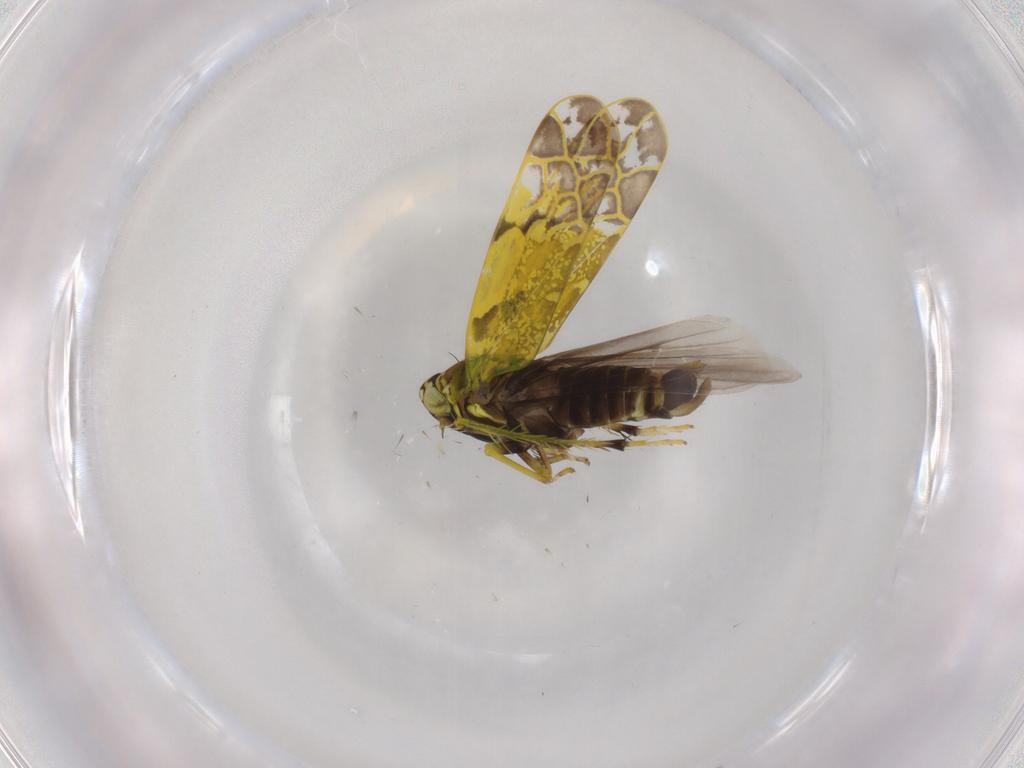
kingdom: Animalia
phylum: Arthropoda
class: Insecta
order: Hemiptera
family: Cicadellidae
